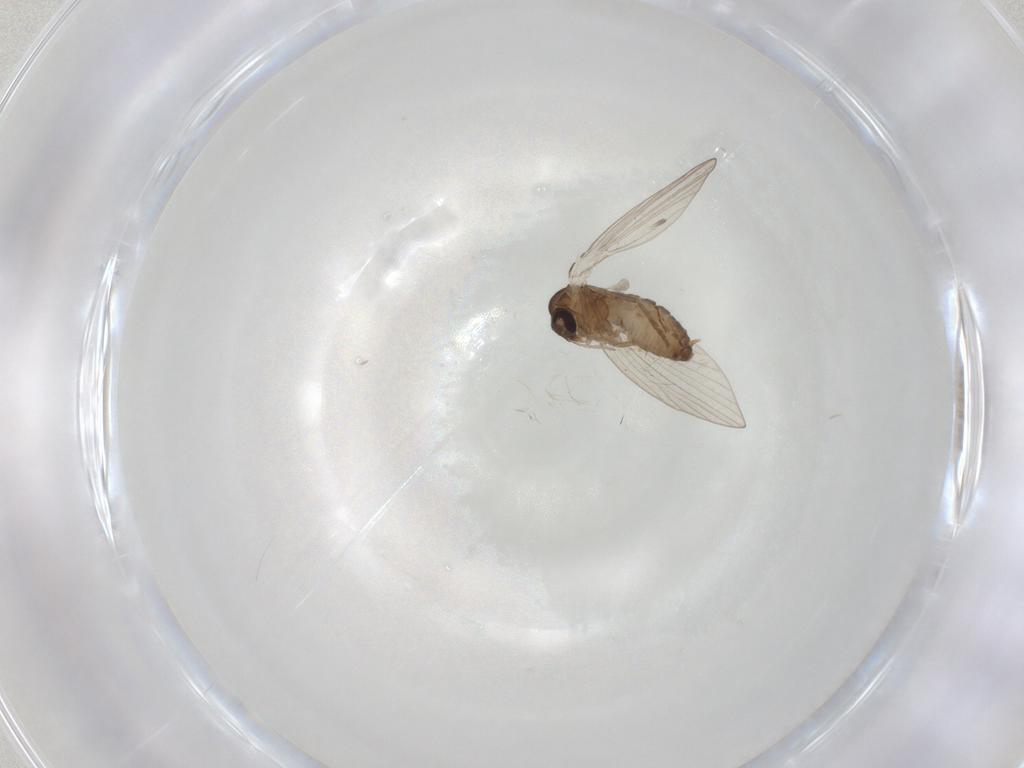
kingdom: Animalia
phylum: Arthropoda
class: Insecta
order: Diptera
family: Psychodidae
